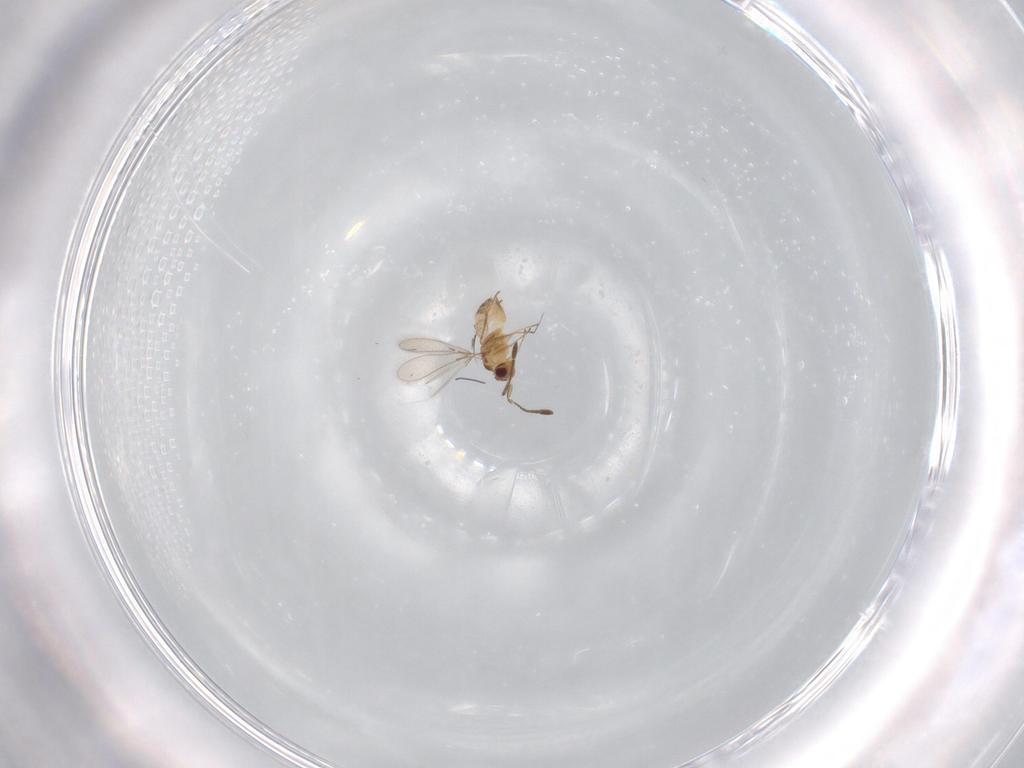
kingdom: Animalia
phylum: Arthropoda
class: Insecta
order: Hymenoptera
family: Mymaridae
